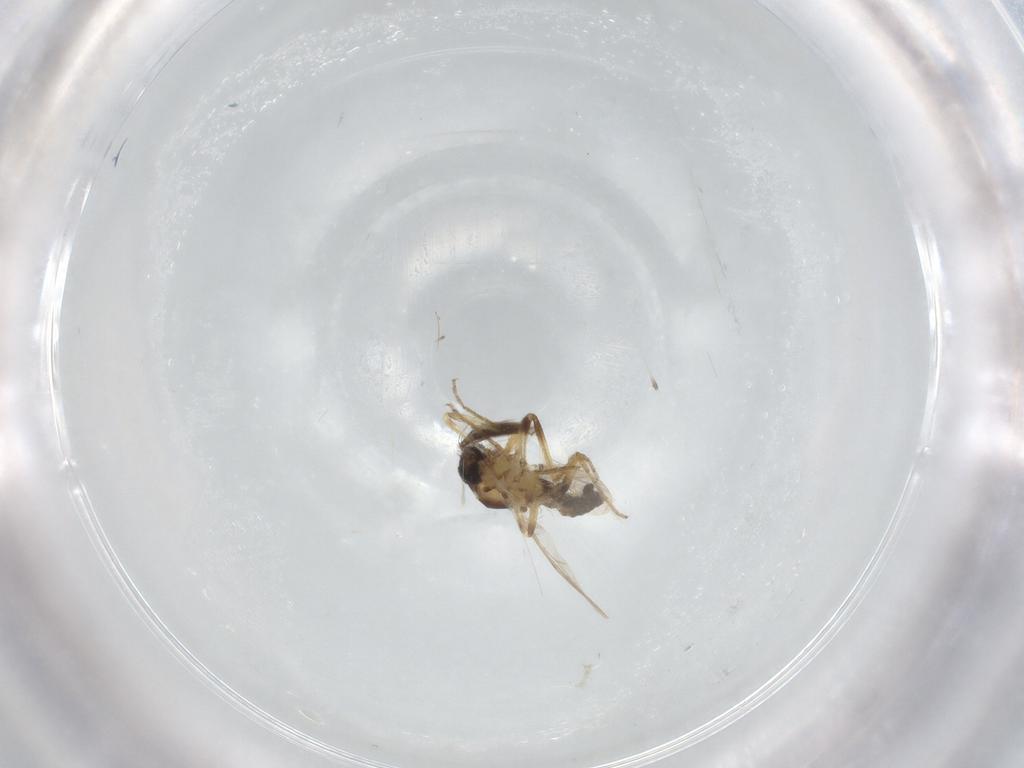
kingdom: Animalia
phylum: Arthropoda
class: Insecta
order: Diptera
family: Ceratopogonidae
